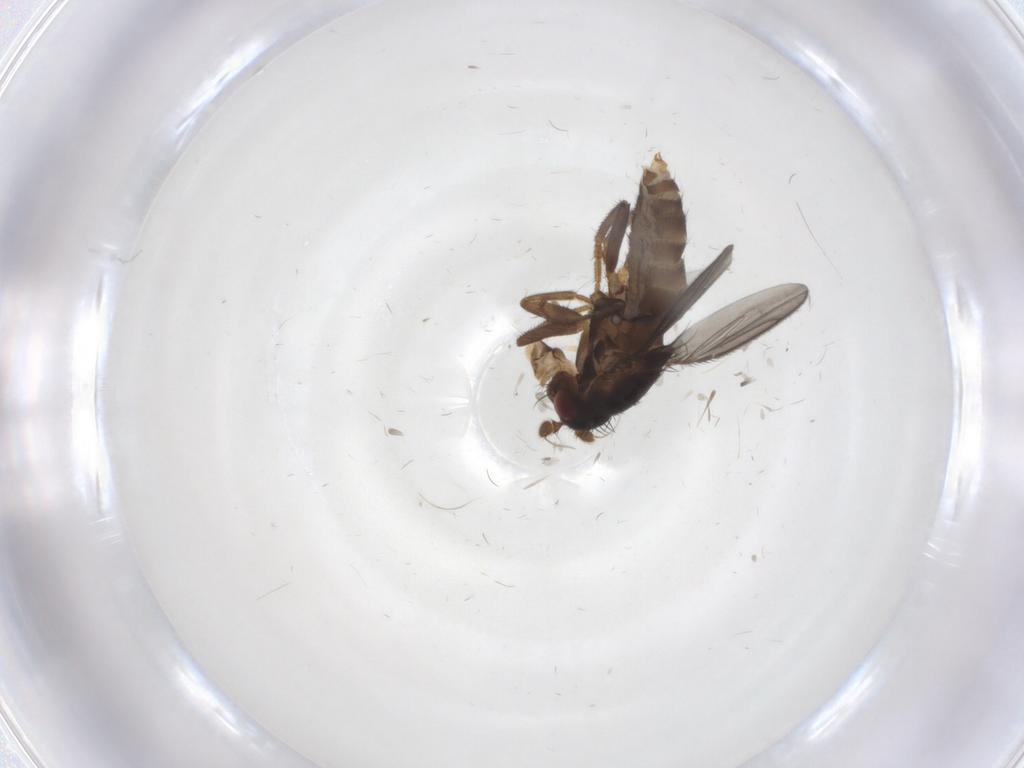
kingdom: Animalia
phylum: Arthropoda
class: Insecta
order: Diptera
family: Sphaeroceridae
